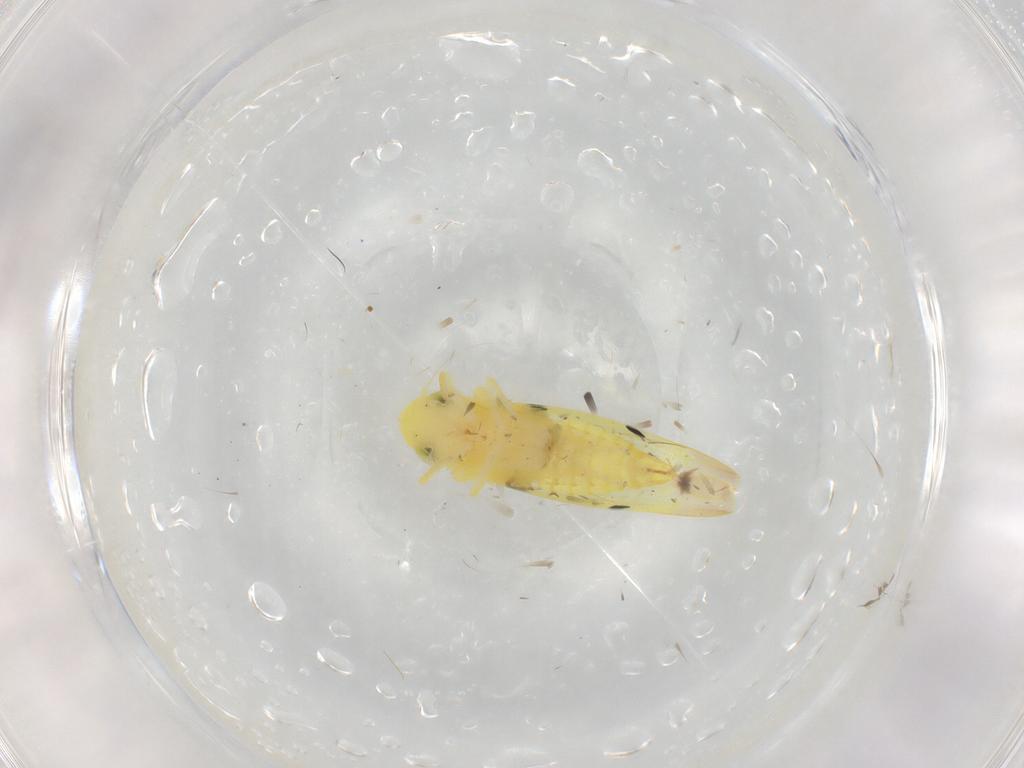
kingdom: Animalia
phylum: Arthropoda
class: Insecta
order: Hemiptera
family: Cicadellidae
